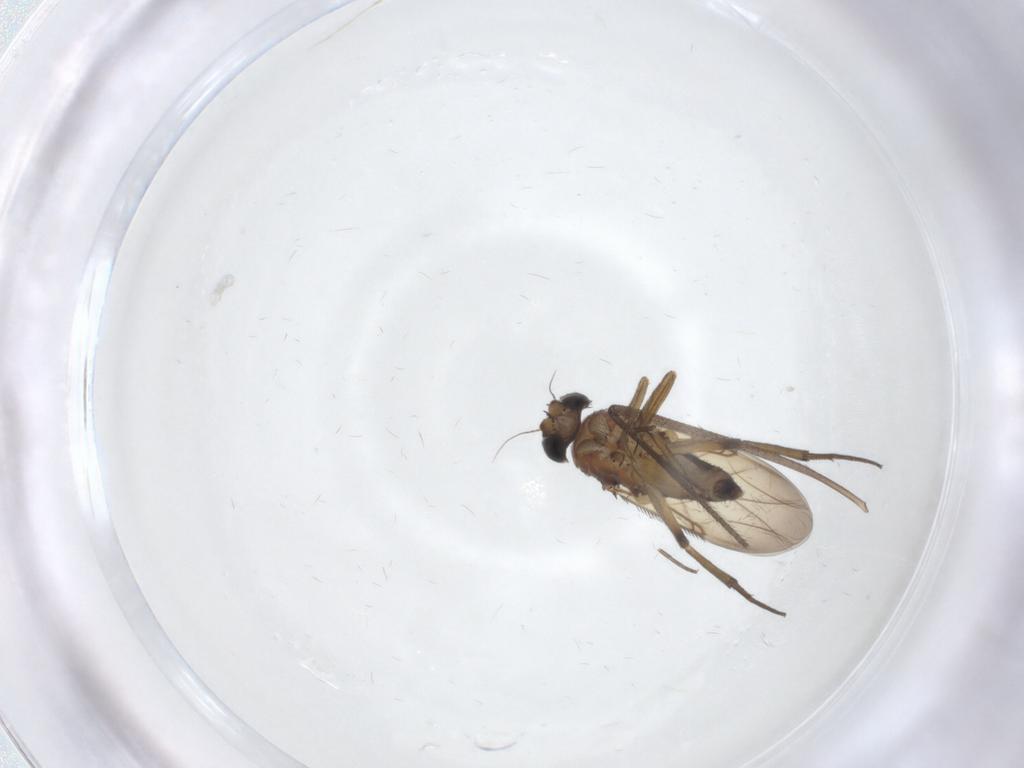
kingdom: Animalia
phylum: Arthropoda
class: Insecta
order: Diptera
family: Phoridae
